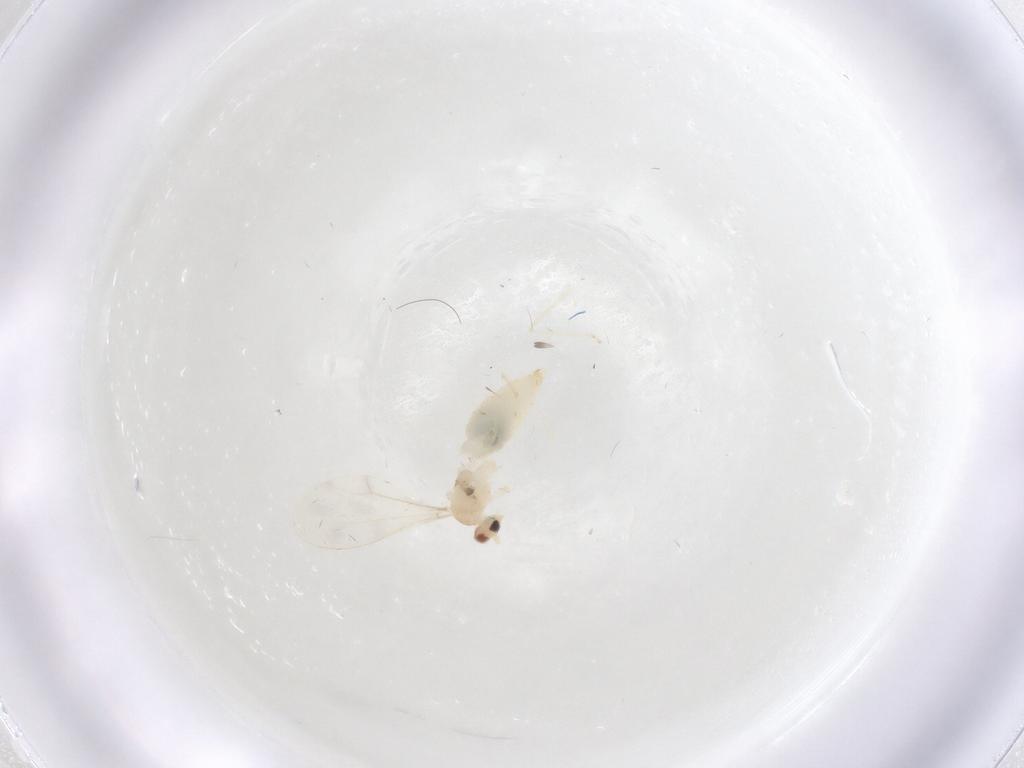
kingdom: Animalia
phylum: Arthropoda
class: Insecta
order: Diptera
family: Cecidomyiidae
